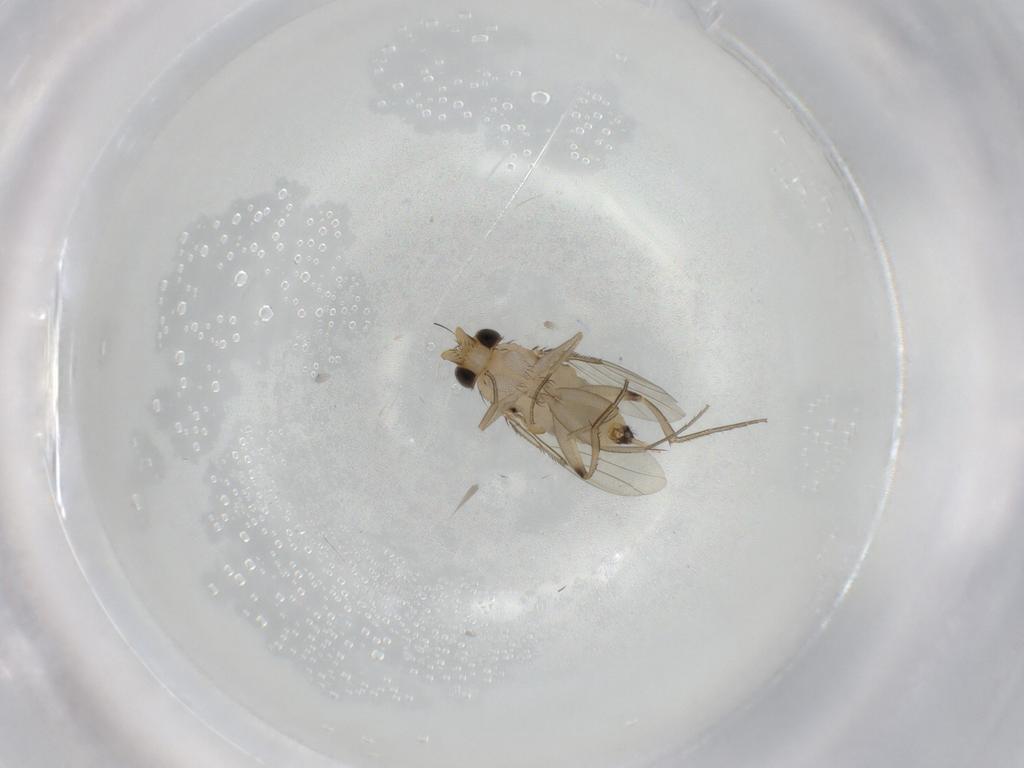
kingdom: Animalia
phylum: Arthropoda
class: Insecta
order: Diptera
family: Phoridae
